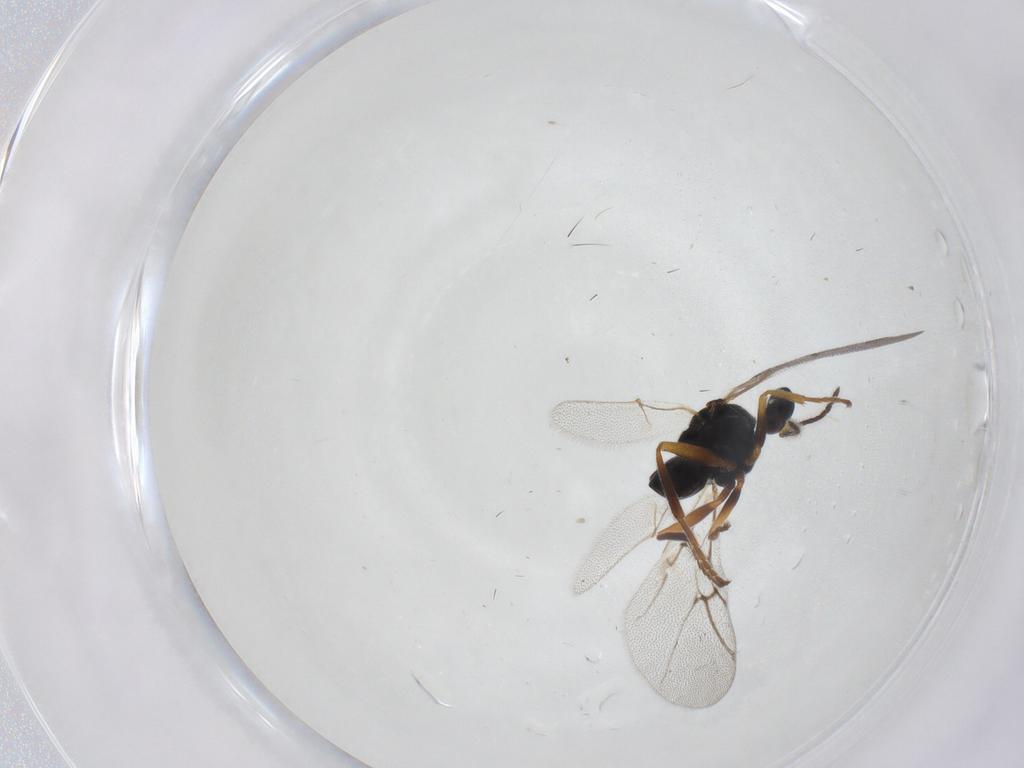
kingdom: Animalia
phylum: Arthropoda
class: Insecta
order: Hymenoptera
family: Cynipidae
